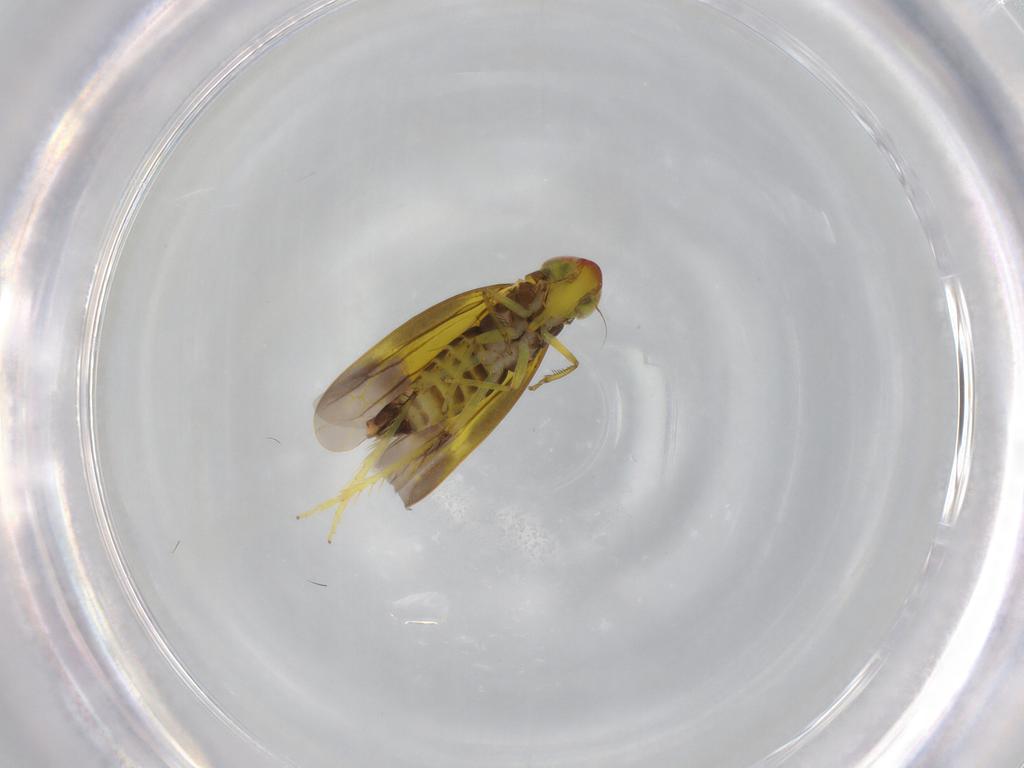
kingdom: Animalia
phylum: Arthropoda
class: Insecta
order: Hemiptera
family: Cicadellidae
